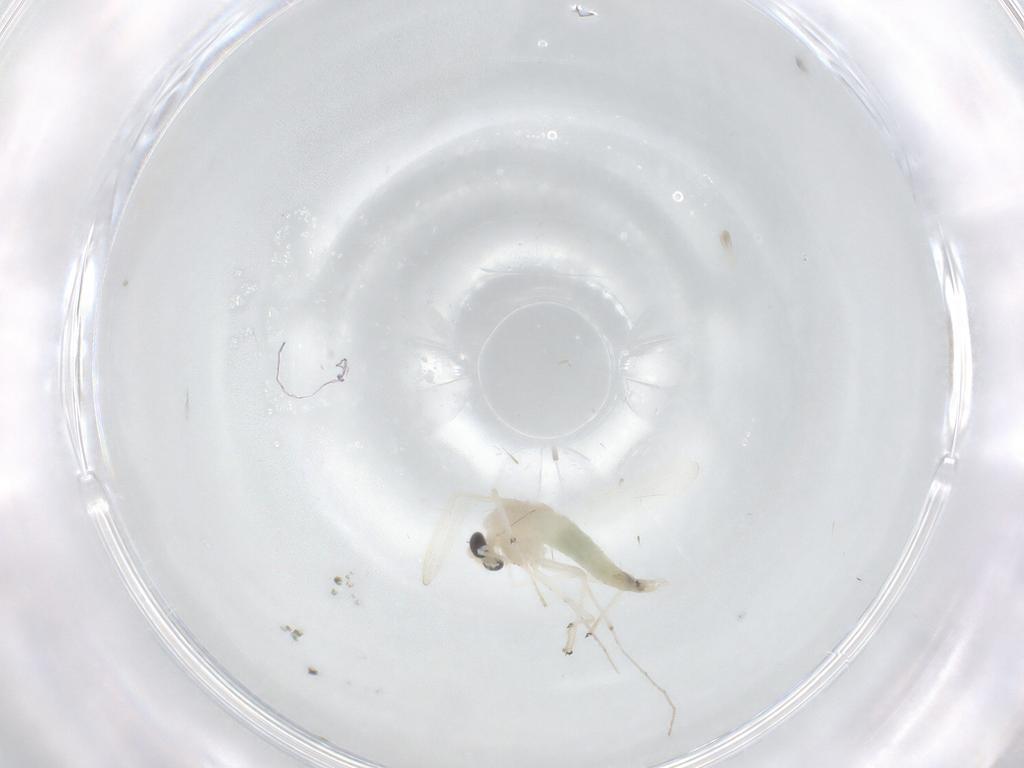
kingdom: Animalia
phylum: Arthropoda
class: Insecta
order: Diptera
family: Chironomidae
